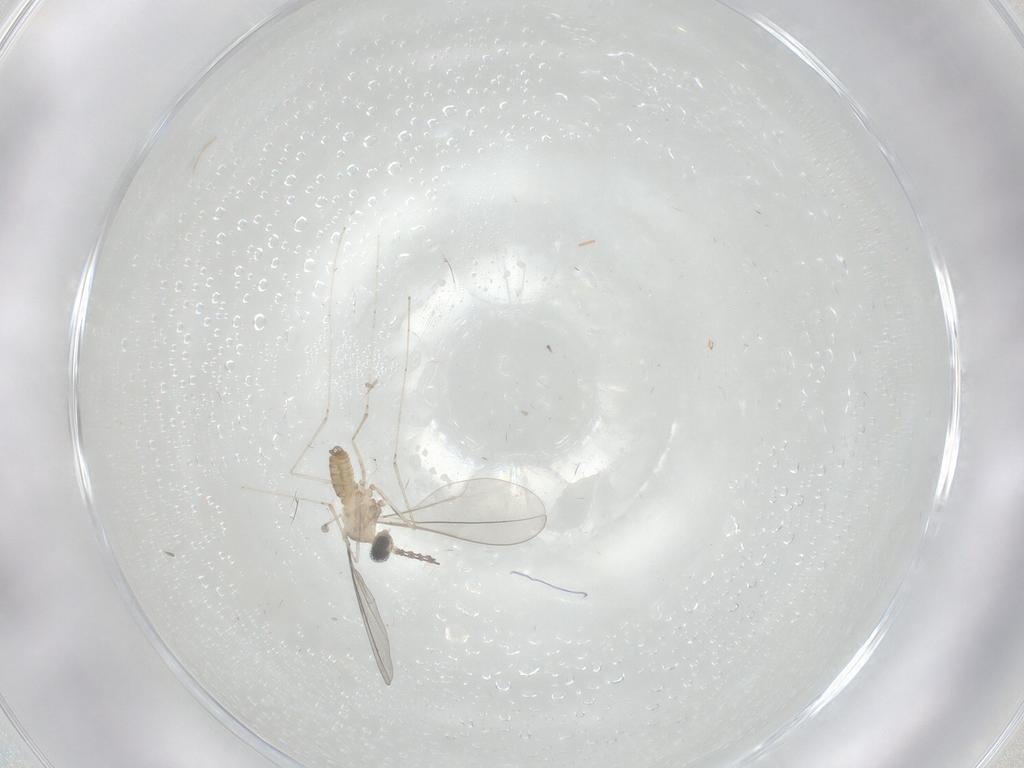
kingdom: Animalia
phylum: Arthropoda
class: Insecta
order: Diptera
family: Cecidomyiidae
